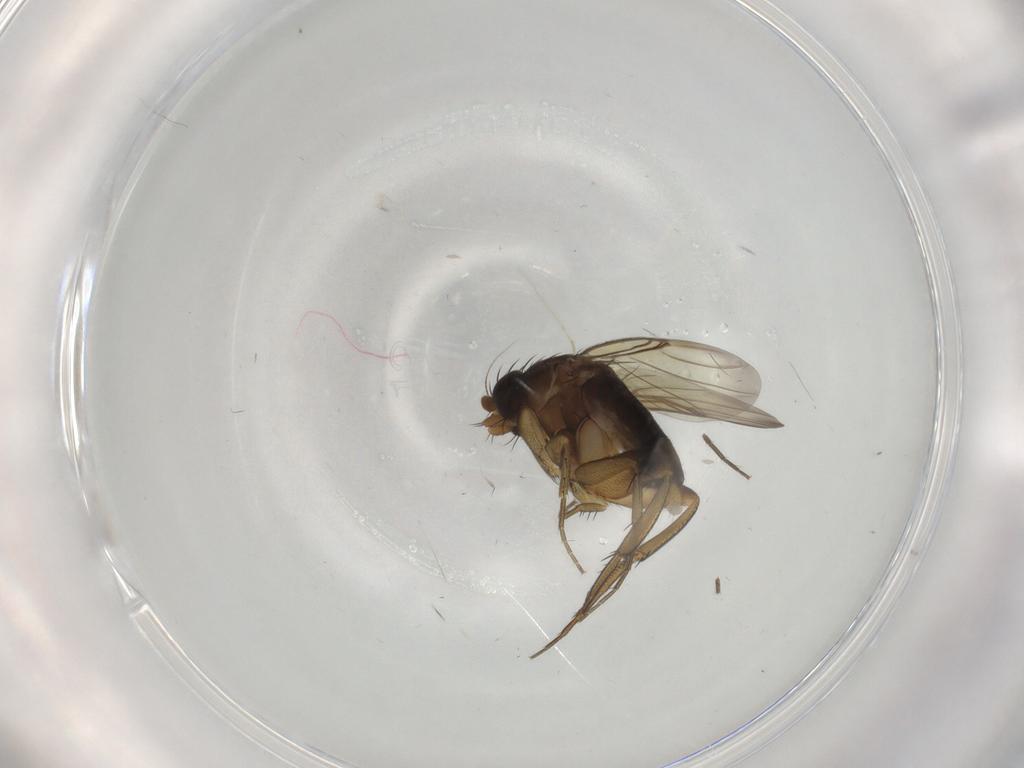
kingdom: Animalia
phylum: Arthropoda
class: Insecta
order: Diptera
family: Phoridae
